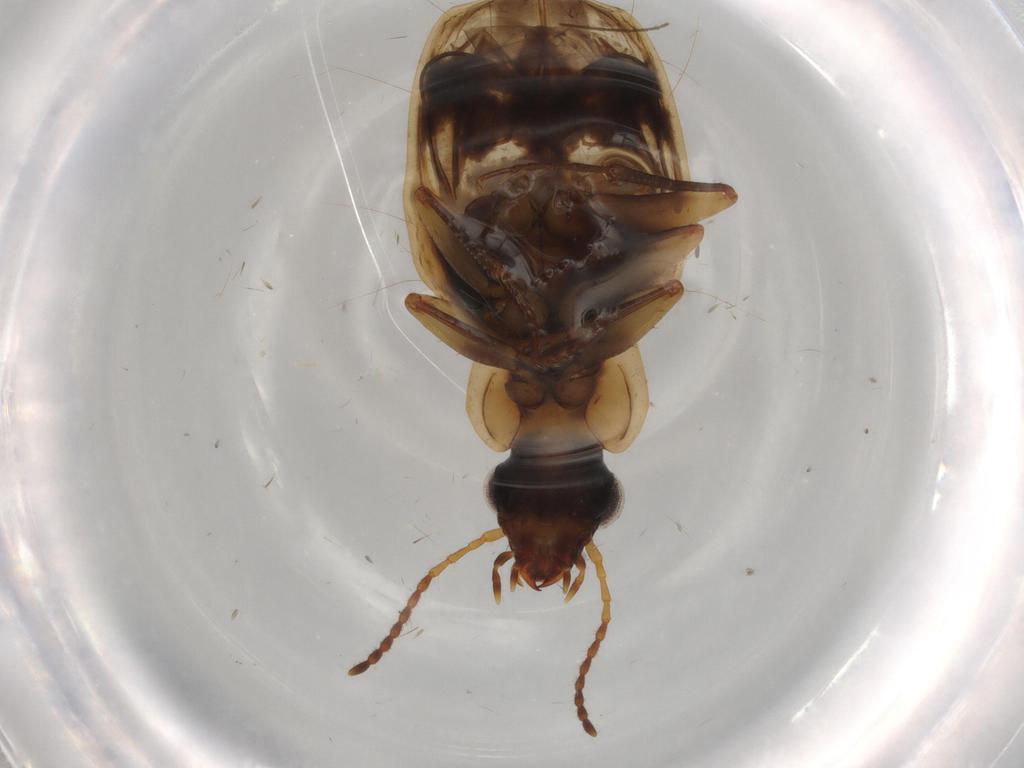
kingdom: Animalia
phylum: Arthropoda
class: Insecta
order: Coleoptera
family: Carabidae
